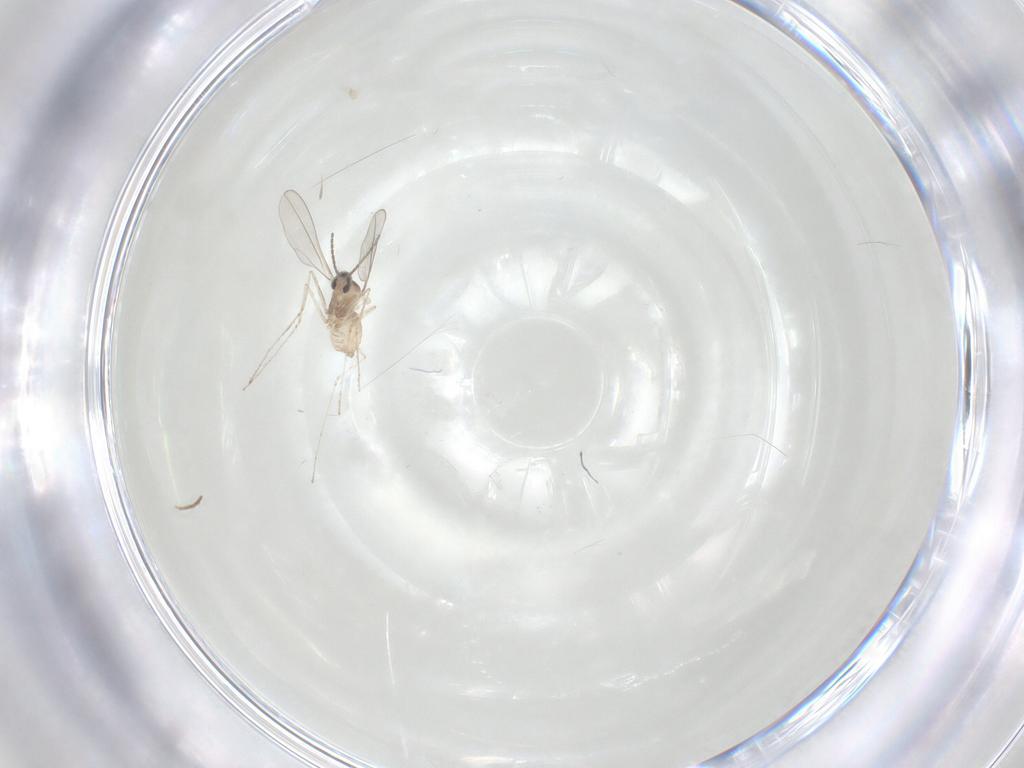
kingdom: Animalia
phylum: Arthropoda
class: Insecta
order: Diptera
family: Cecidomyiidae
